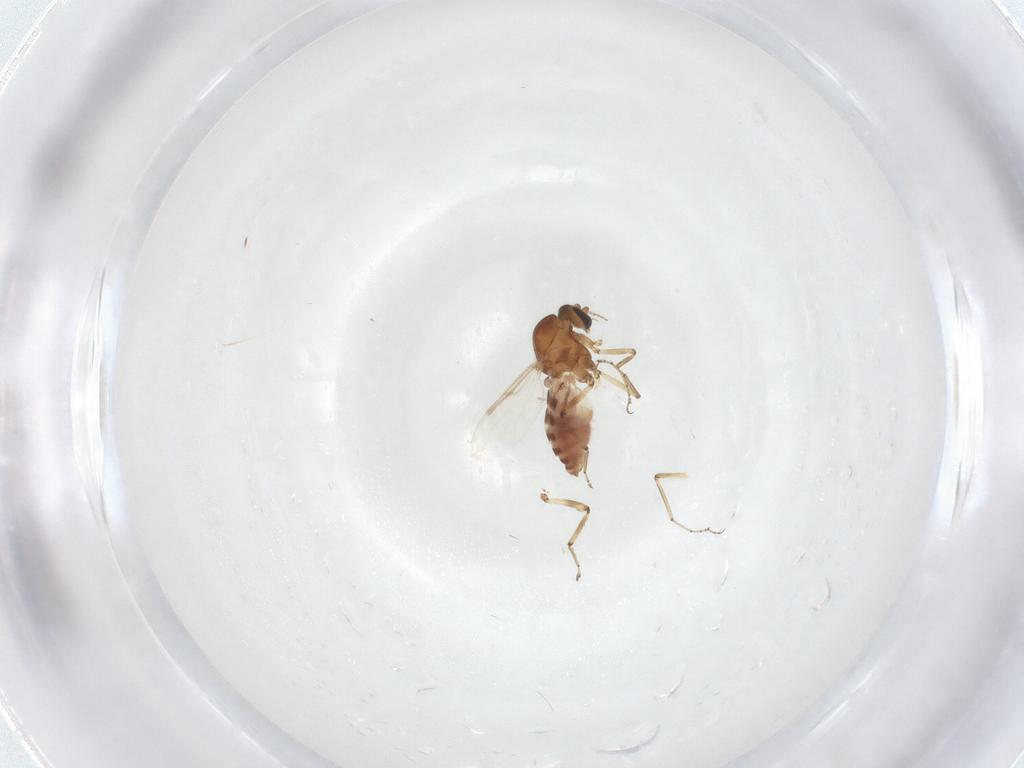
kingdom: Animalia
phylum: Arthropoda
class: Insecta
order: Diptera
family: Ceratopogonidae
